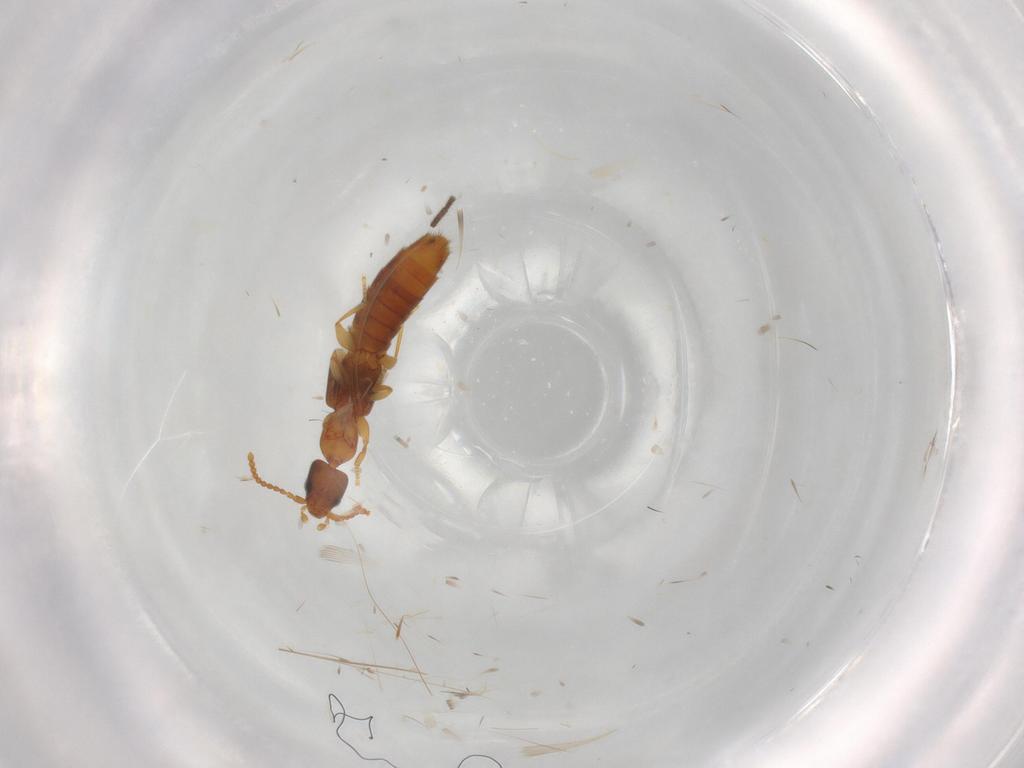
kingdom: Animalia
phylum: Arthropoda
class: Insecta
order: Coleoptera
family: Staphylinidae
